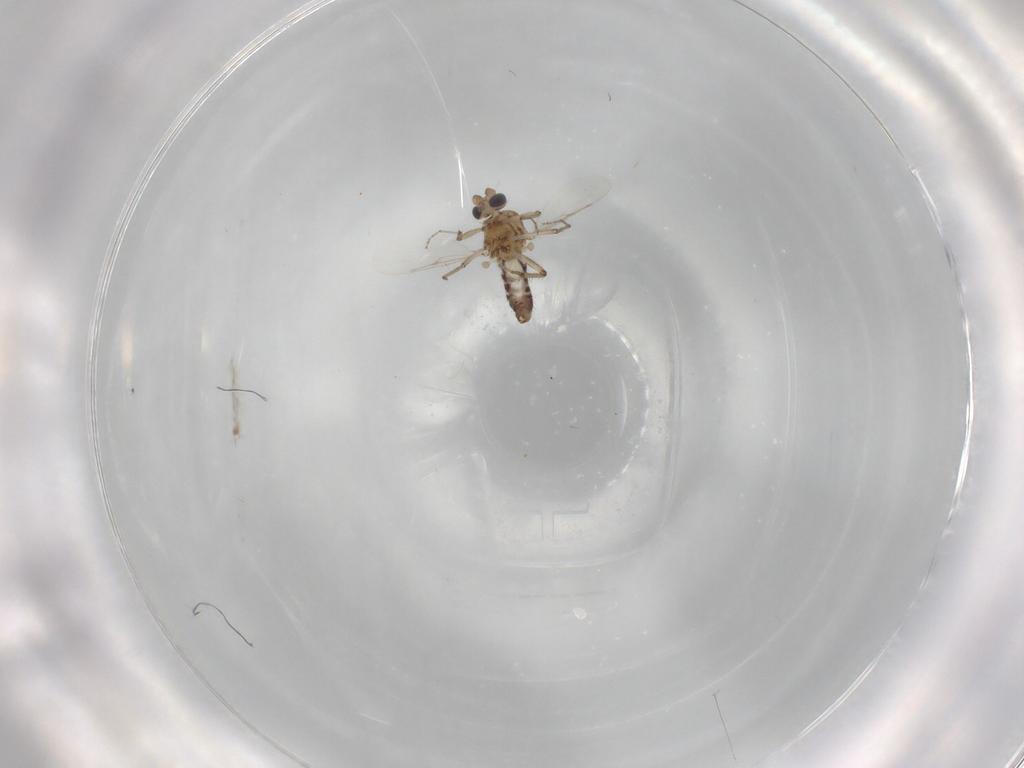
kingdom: Animalia
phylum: Arthropoda
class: Insecta
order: Diptera
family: Ceratopogonidae
